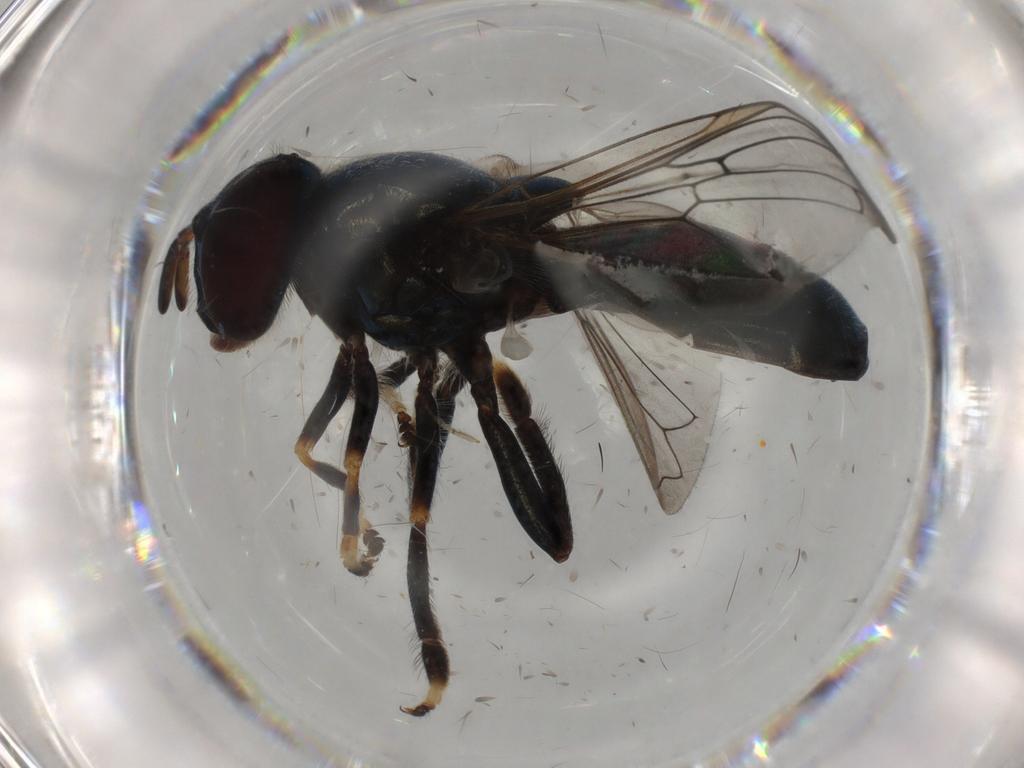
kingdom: Animalia
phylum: Arthropoda
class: Insecta
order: Diptera
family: Syrphidae
